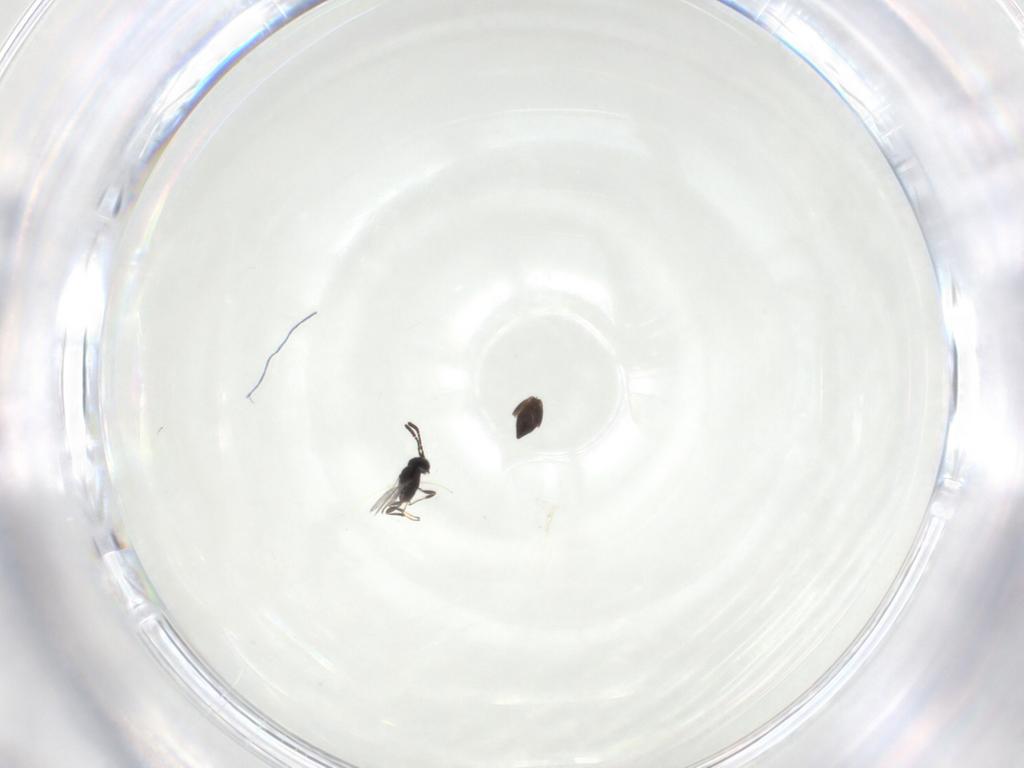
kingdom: Animalia
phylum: Arthropoda
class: Insecta
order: Hymenoptera
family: Scelionidae
